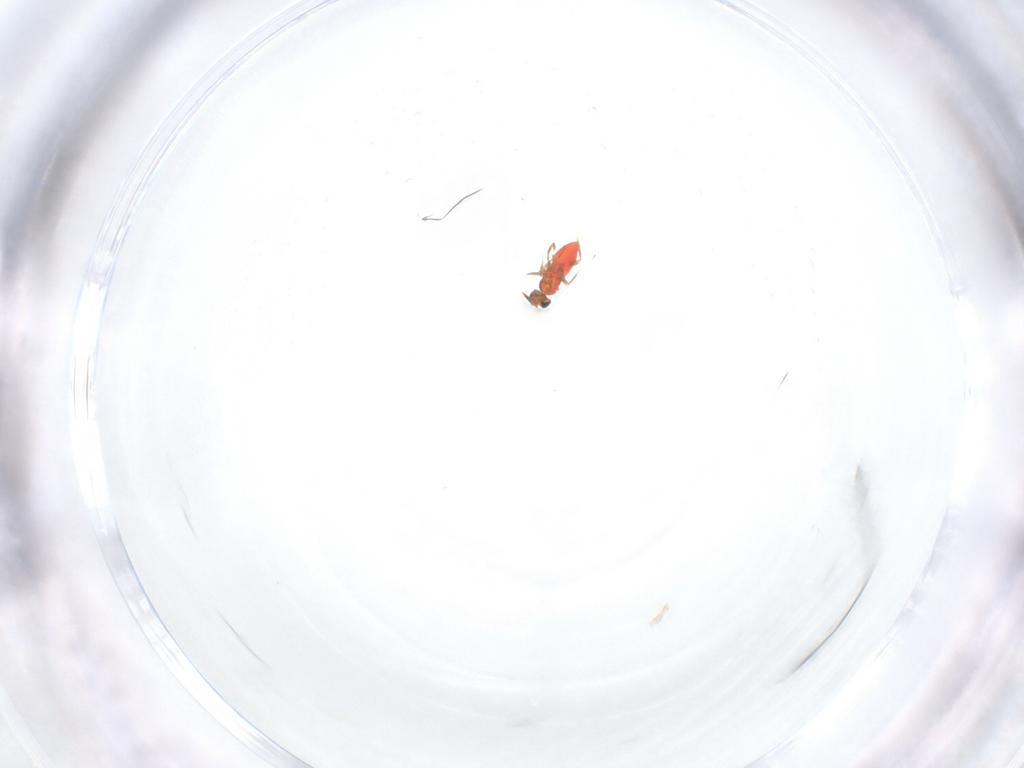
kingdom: Animalia
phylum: Arthropoda
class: Insecta
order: Hymenoptera
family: Trichogrammatidae
